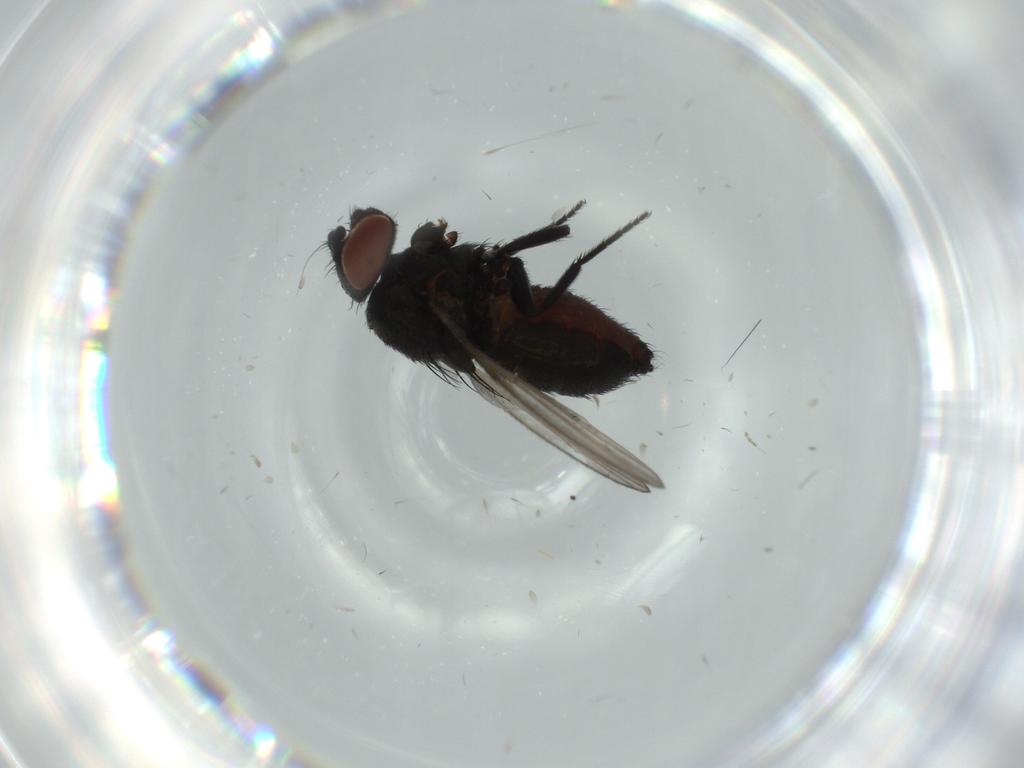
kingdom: Animalia
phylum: Arthropoda
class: Insecta
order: Diptera
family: Milichiidae
